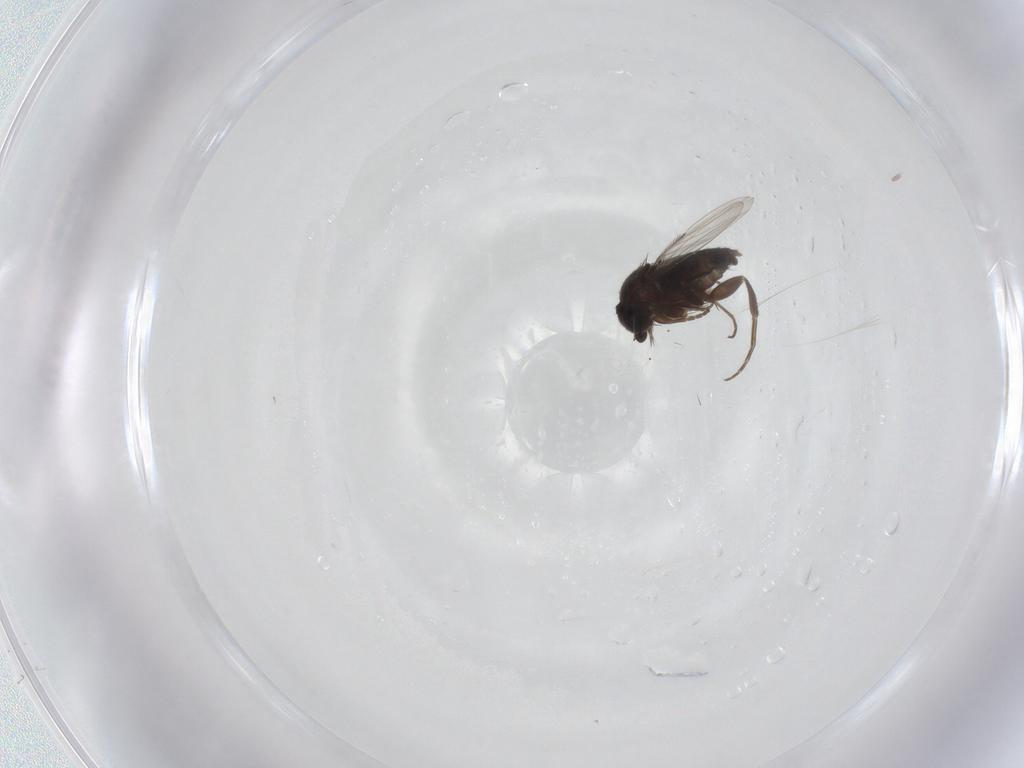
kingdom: Animalia
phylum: Arthropoda
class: Insecta
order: Diptera
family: Phoridae
